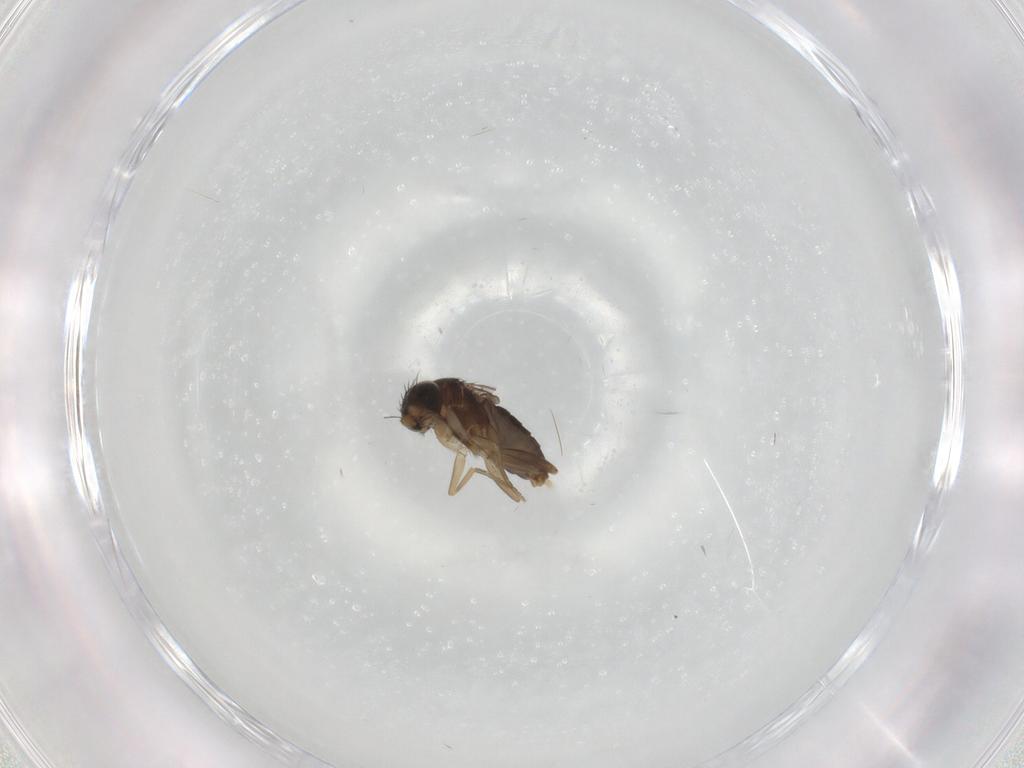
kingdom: Animalia
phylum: Arthropoda
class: Insecta
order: Diptera
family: Phoridae
